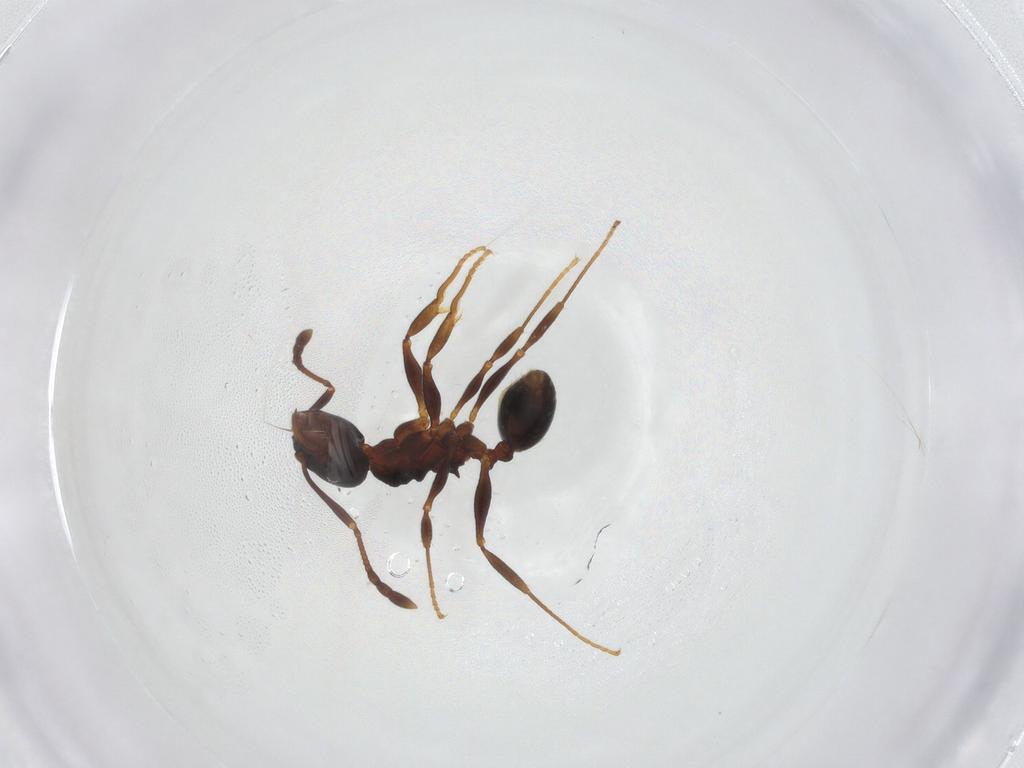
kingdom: Animalia
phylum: Arthropoda
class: Insecta
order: Hymenoptera
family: Formicidae
